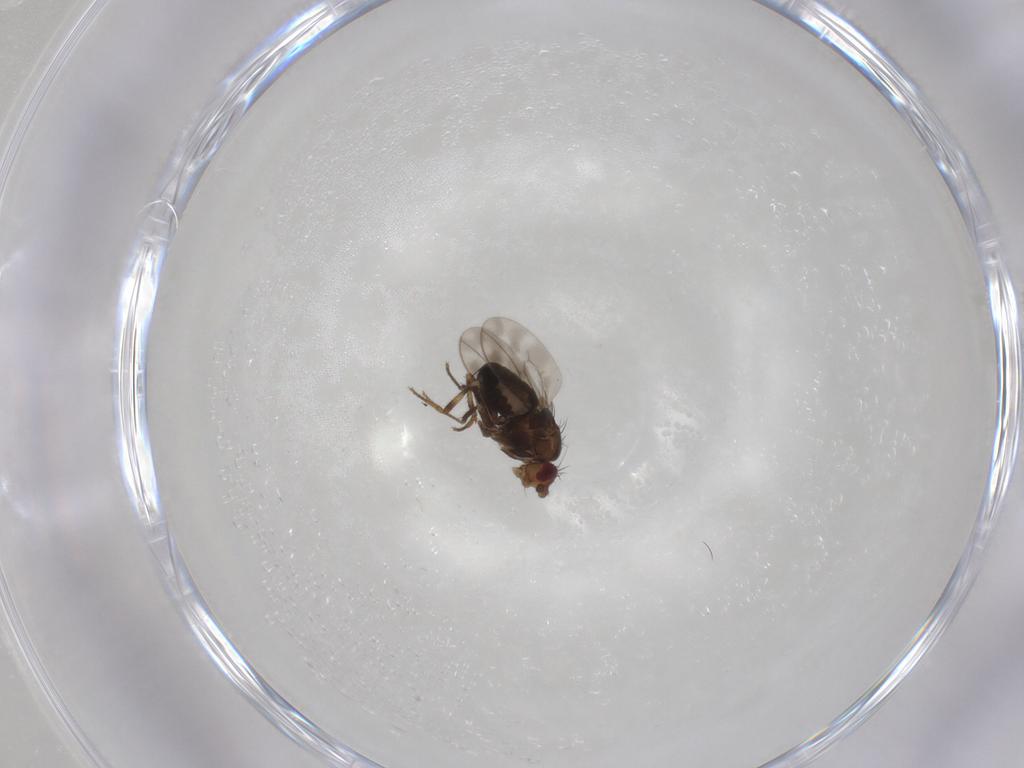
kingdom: Animalia
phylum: Arthropoda
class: Insecta
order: Diptera
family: Sphaeroceridae
